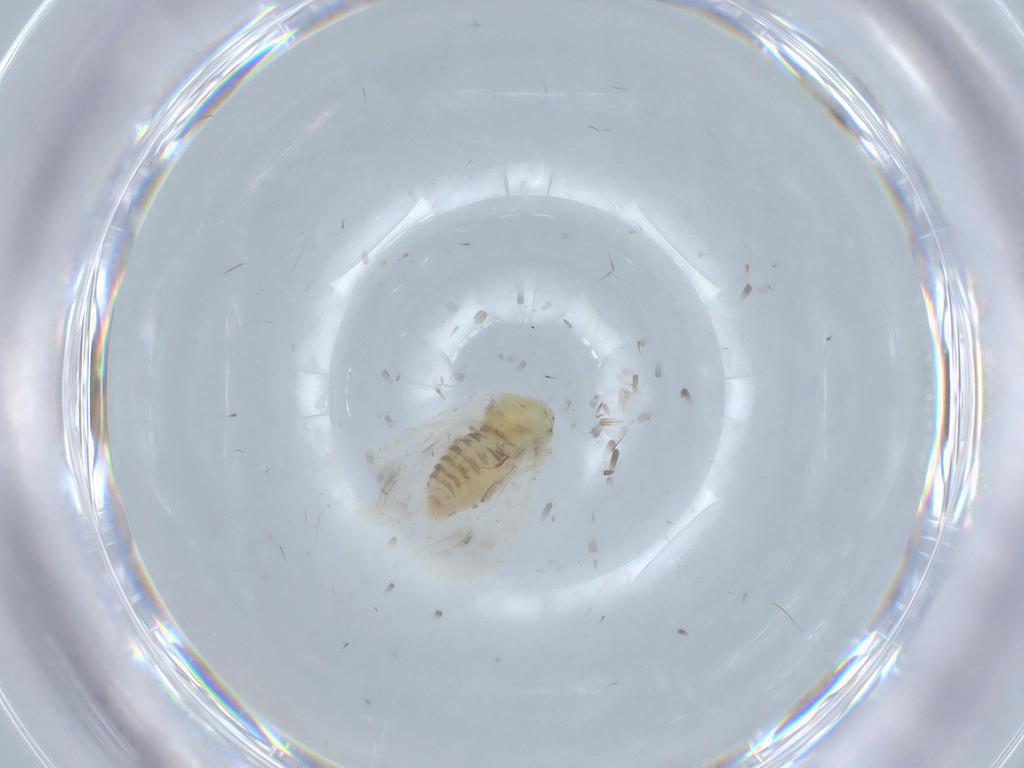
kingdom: Animalia
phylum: Arthropoda
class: Insecta
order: Hemiptera
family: Aleyrodidae
